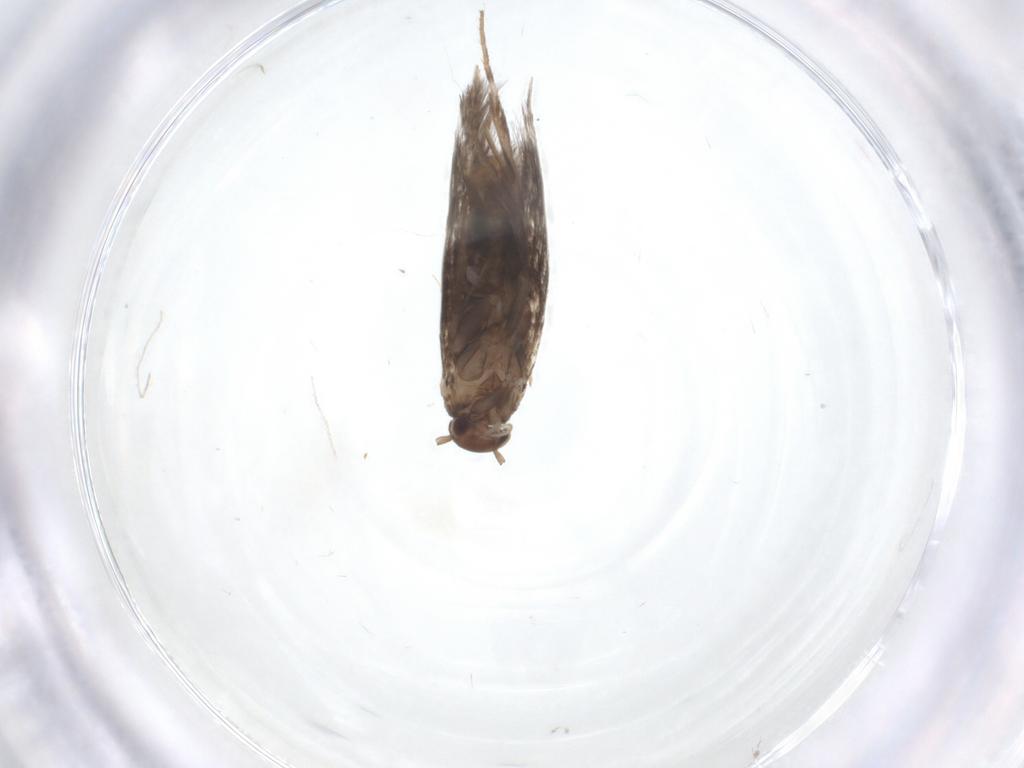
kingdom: Animalia
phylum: Arthropoda
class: Insecta
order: Lepidoptera
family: Elachistidae
